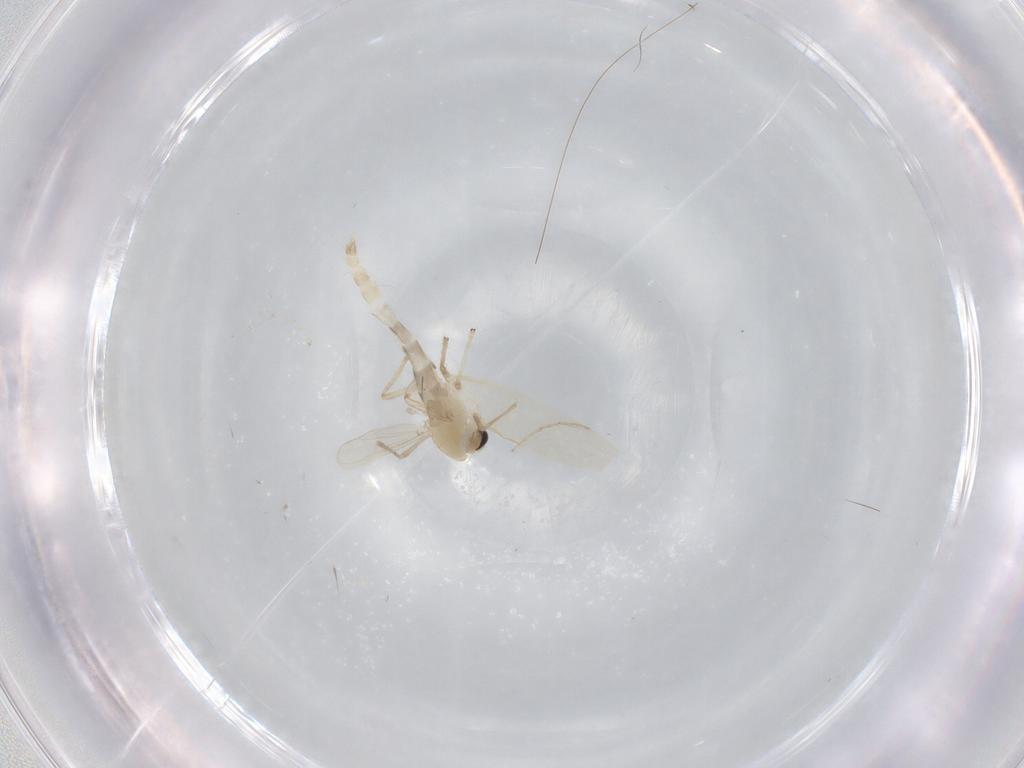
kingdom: Animalia
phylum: Arthropoda
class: Insecta
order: Diptera
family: Chironomidae
